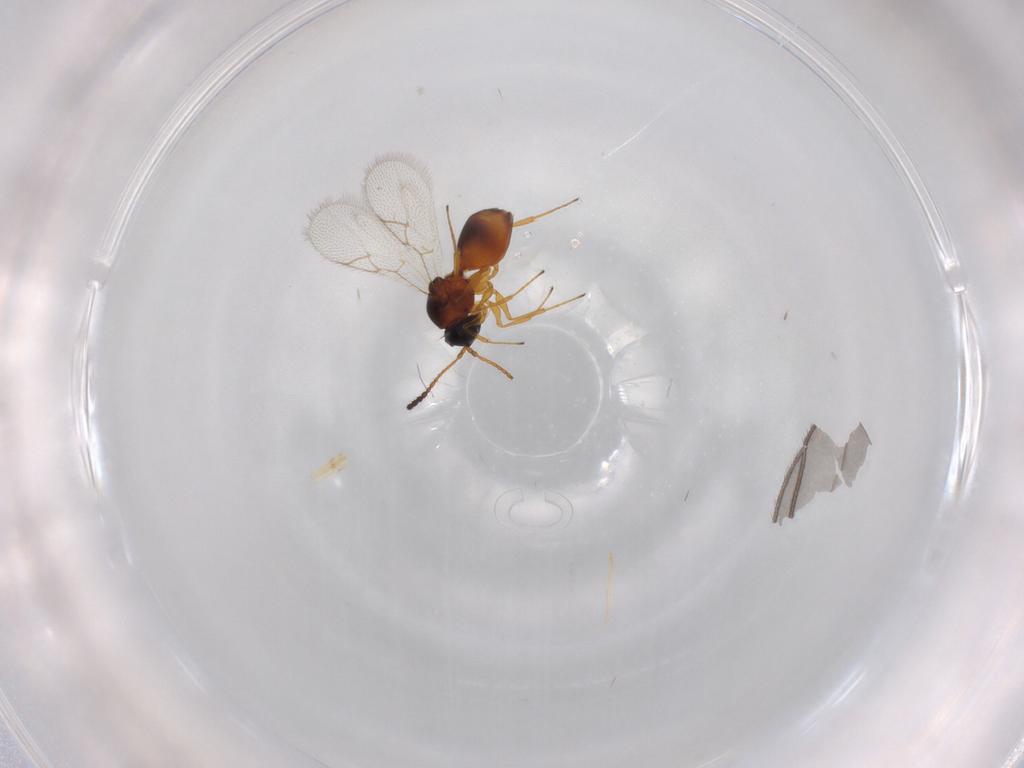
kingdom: Animalia
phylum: Arthropoda
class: Insecta
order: Hymenoptera
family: Figitidae
